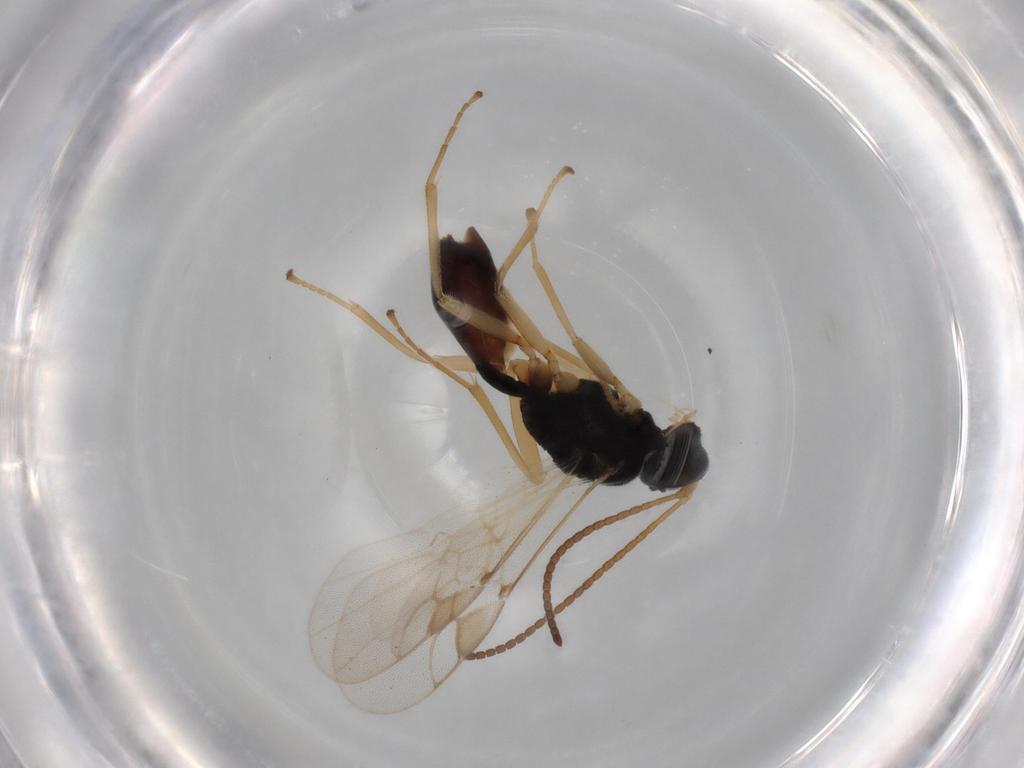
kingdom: Animalia
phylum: Arthropoda
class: Insecta
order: Hymenoptera
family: Braconidae
